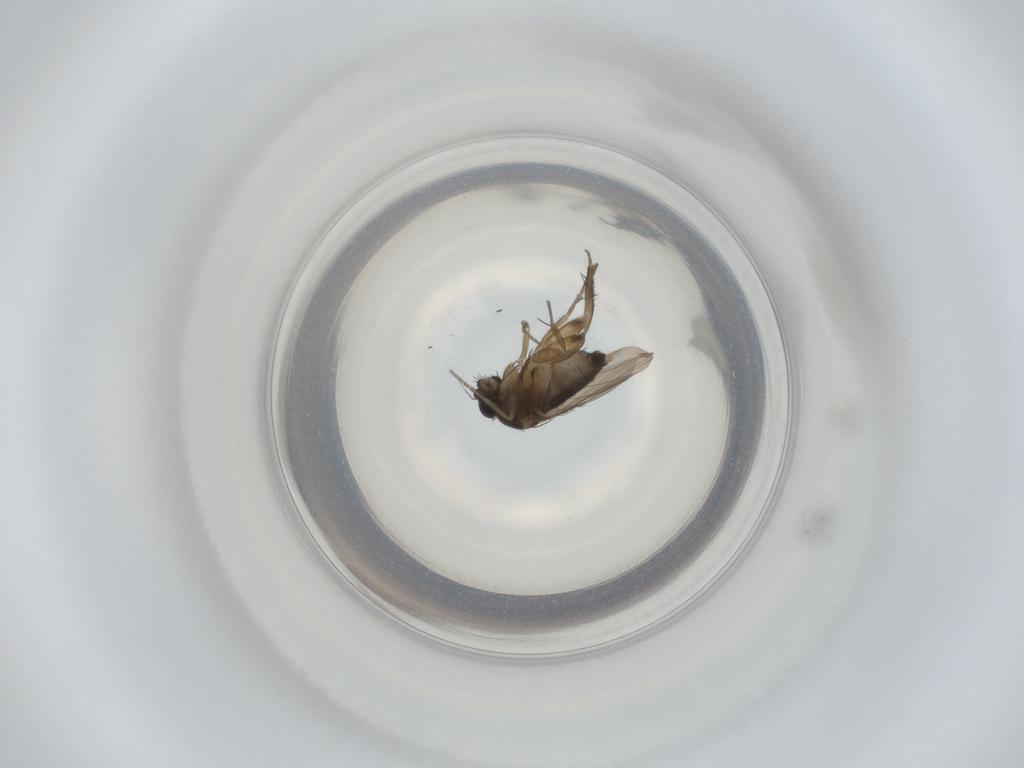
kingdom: Animalia
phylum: Arthropoda
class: Insecta
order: Diptera
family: Phoridae
